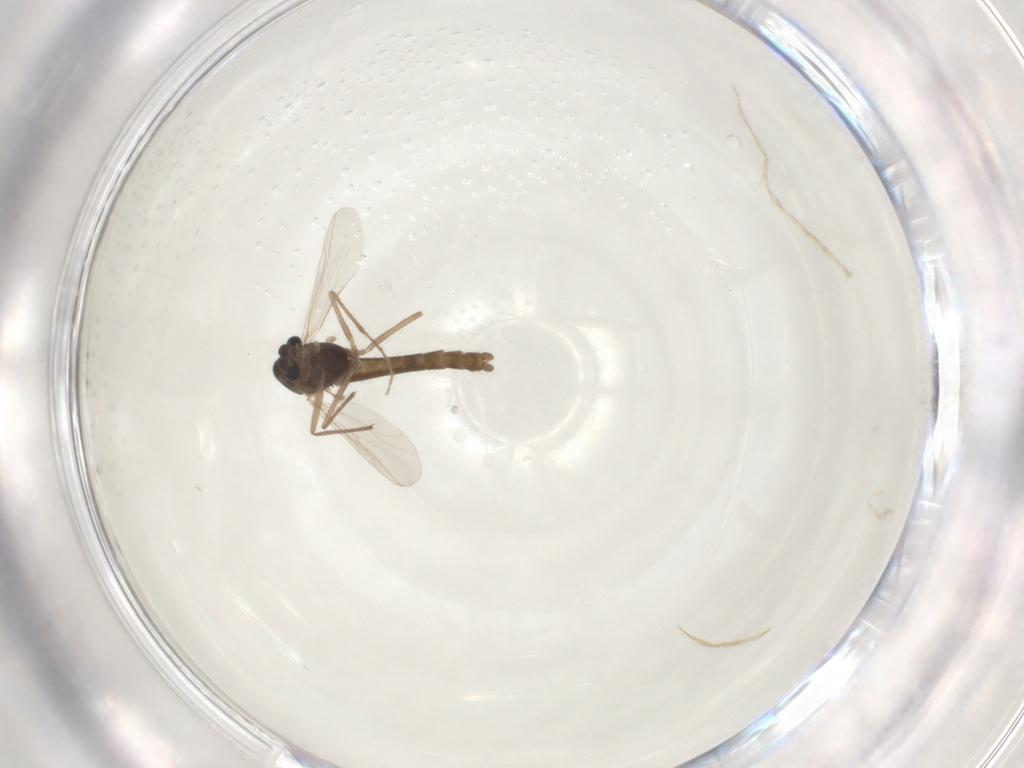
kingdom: Animalia
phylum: Arthropoda
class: Insecta
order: Diptera
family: Chironomidae
